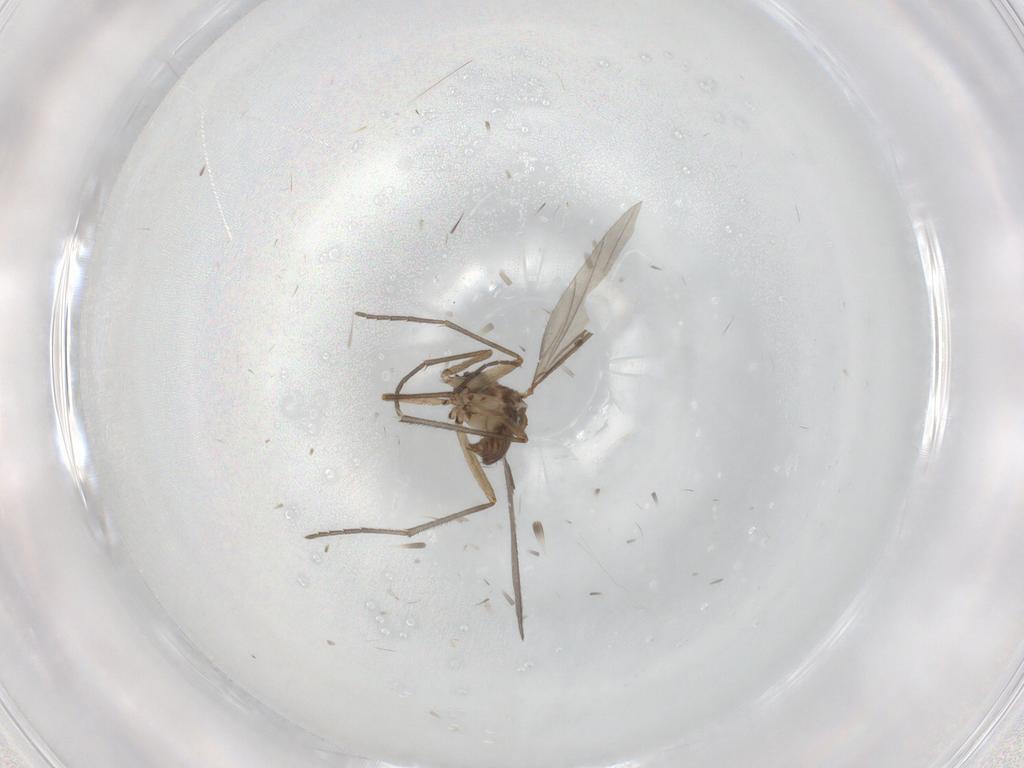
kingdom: Animalia
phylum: Arthropoda
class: Insecta
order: Diptera
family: Sciaridae
